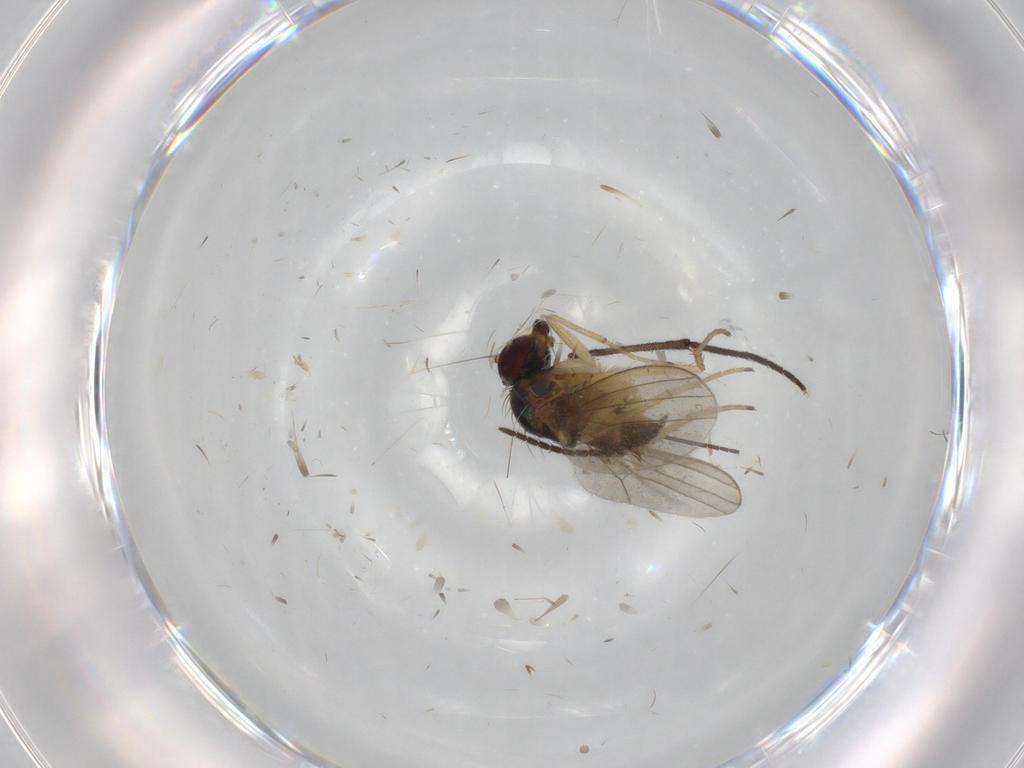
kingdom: Animalia
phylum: Arthropoda
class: Insecta
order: Diptera
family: Dolichopodidae
